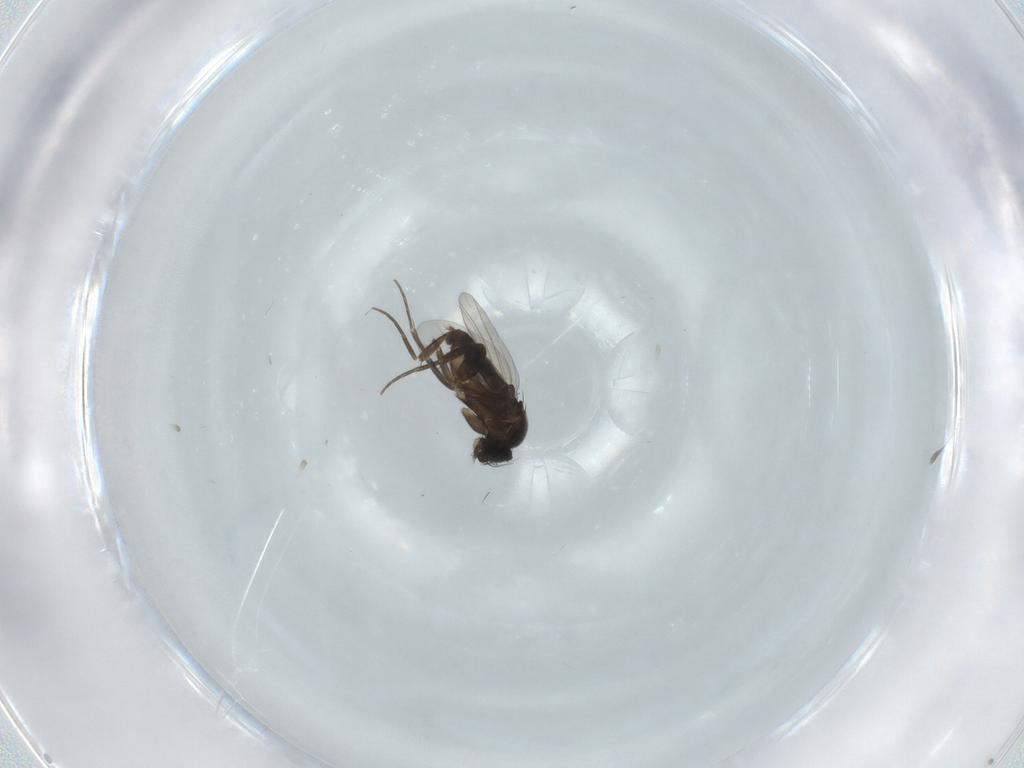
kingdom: Animalia
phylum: Arthropoda
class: Insecta
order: Diptera
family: Phoridae
